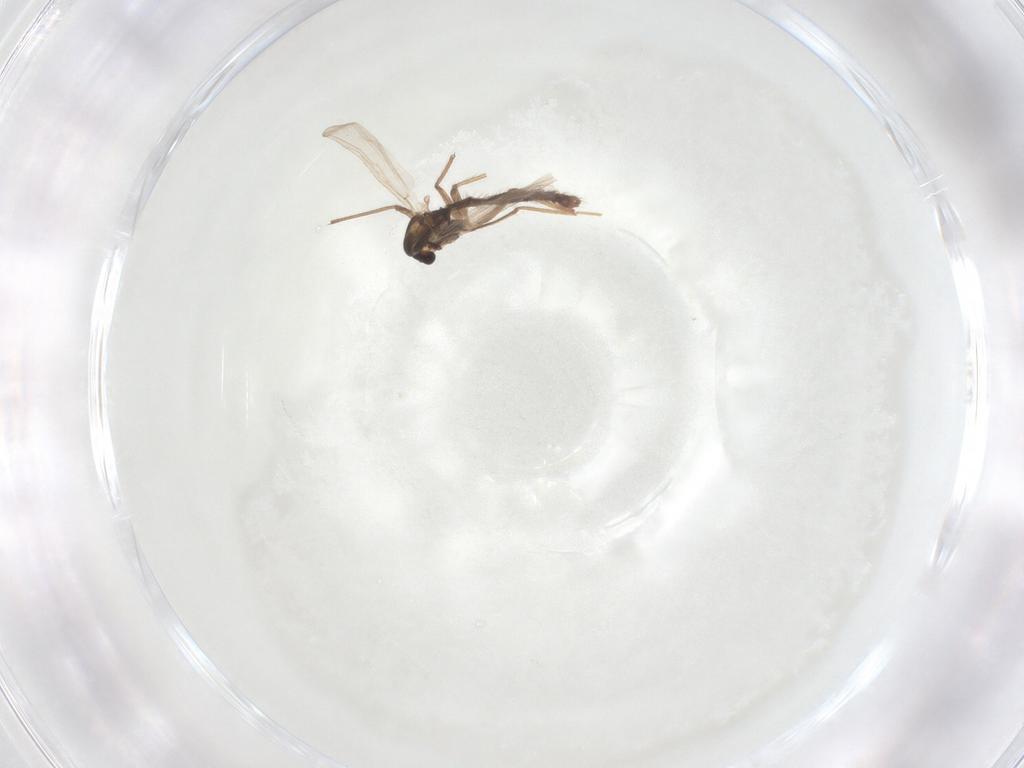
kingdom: Animalia
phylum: Arthropoda
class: Insecta
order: Diptera
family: Chironomidae
